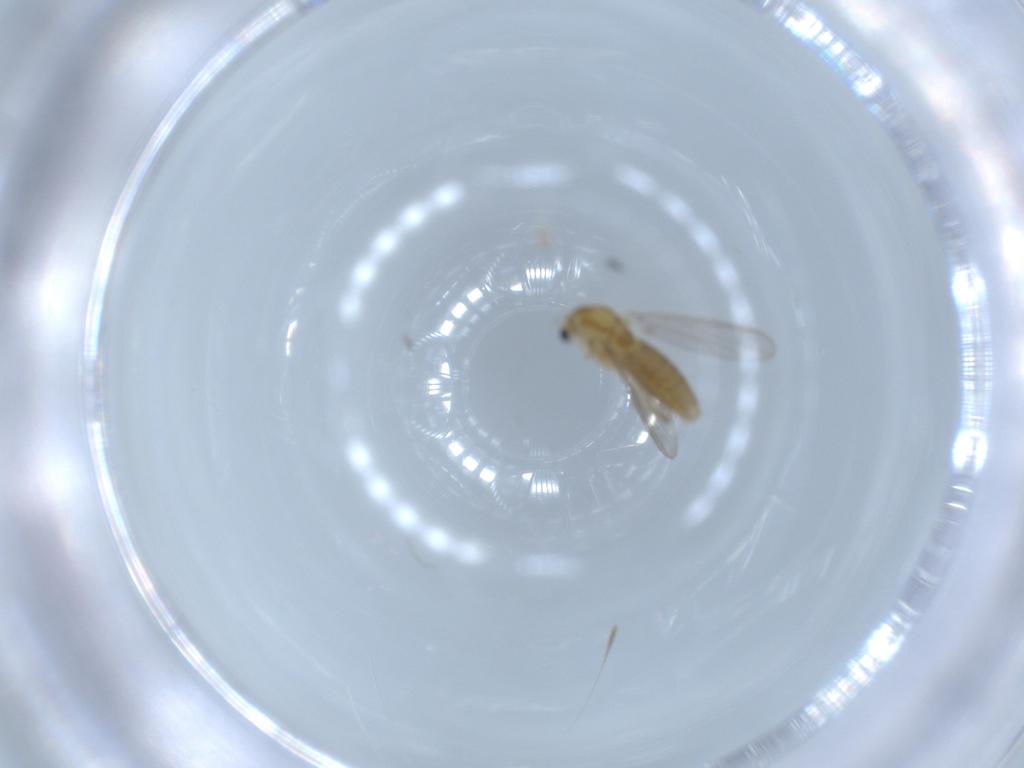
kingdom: Animalia
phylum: Arthropoda
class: Insecta
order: Diptera
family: Chironomidae
